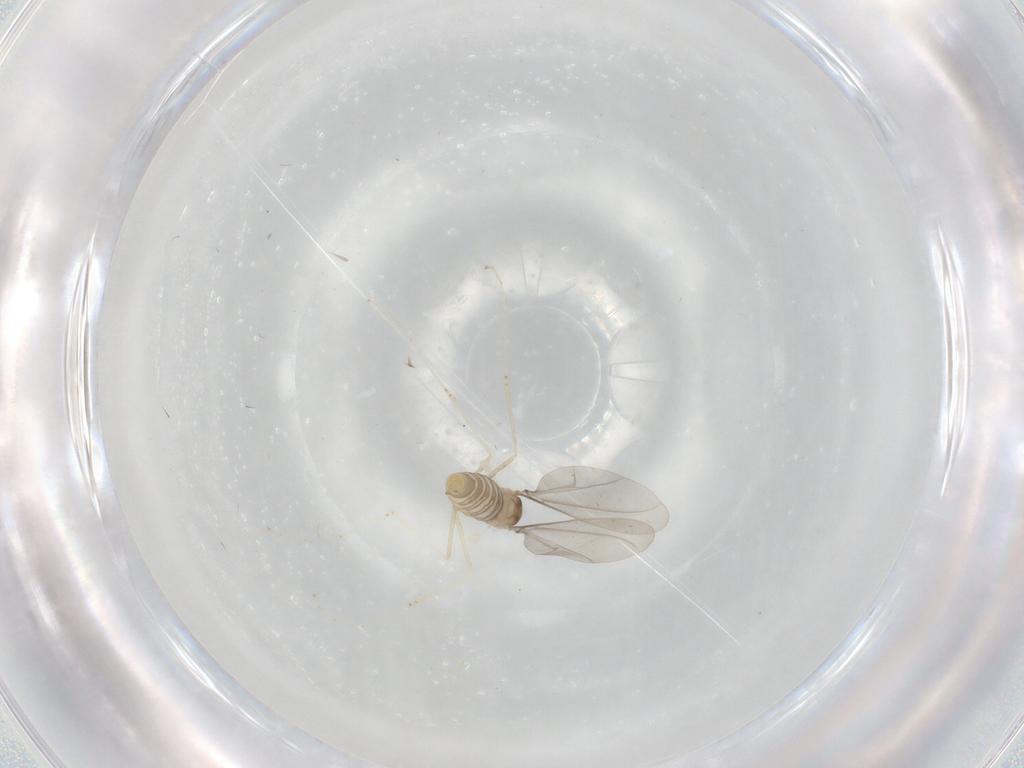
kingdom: Animalia
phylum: Arthropoda
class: Insecta
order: Diptera
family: Cecidomyiidae
